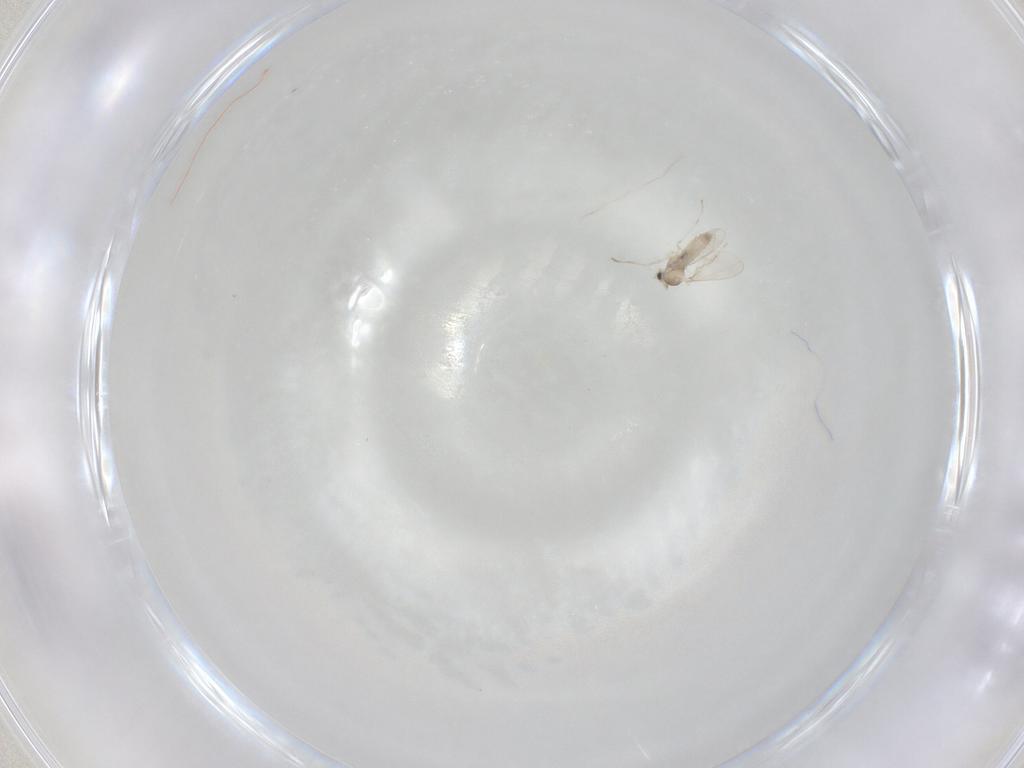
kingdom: Animalia
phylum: Arthropoda
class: Insecta
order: Diptera
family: Cecidomyiidae
